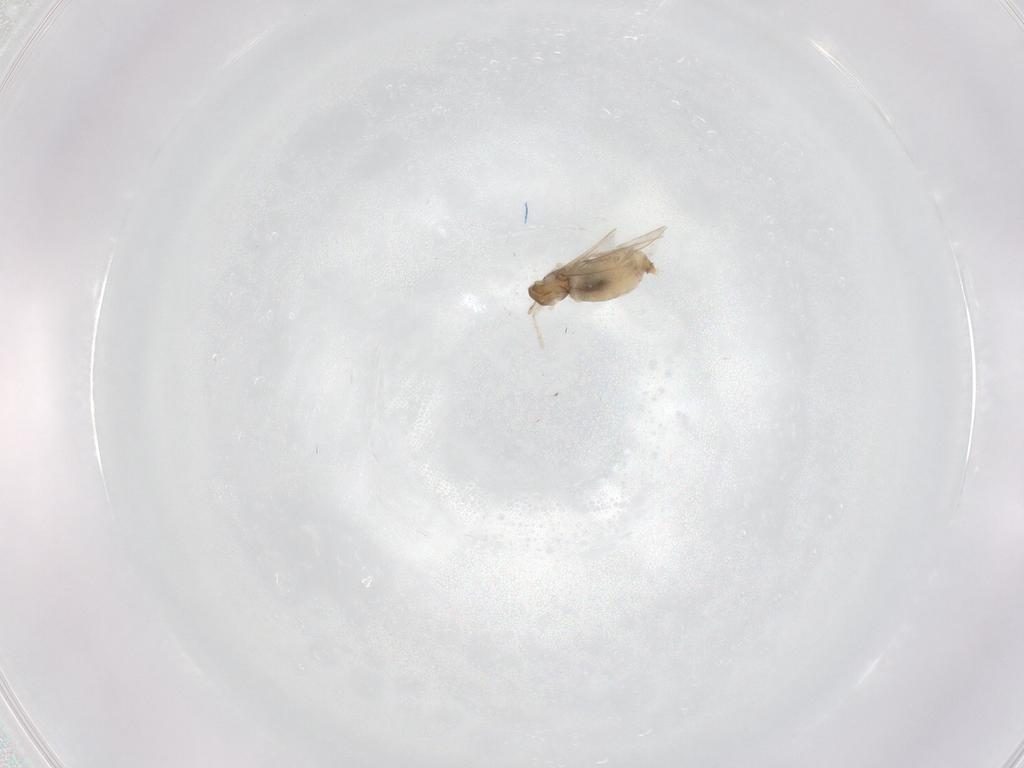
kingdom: Animalia
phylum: Arthropoda
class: Insecta
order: Diptera
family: Cecidomyiidae
